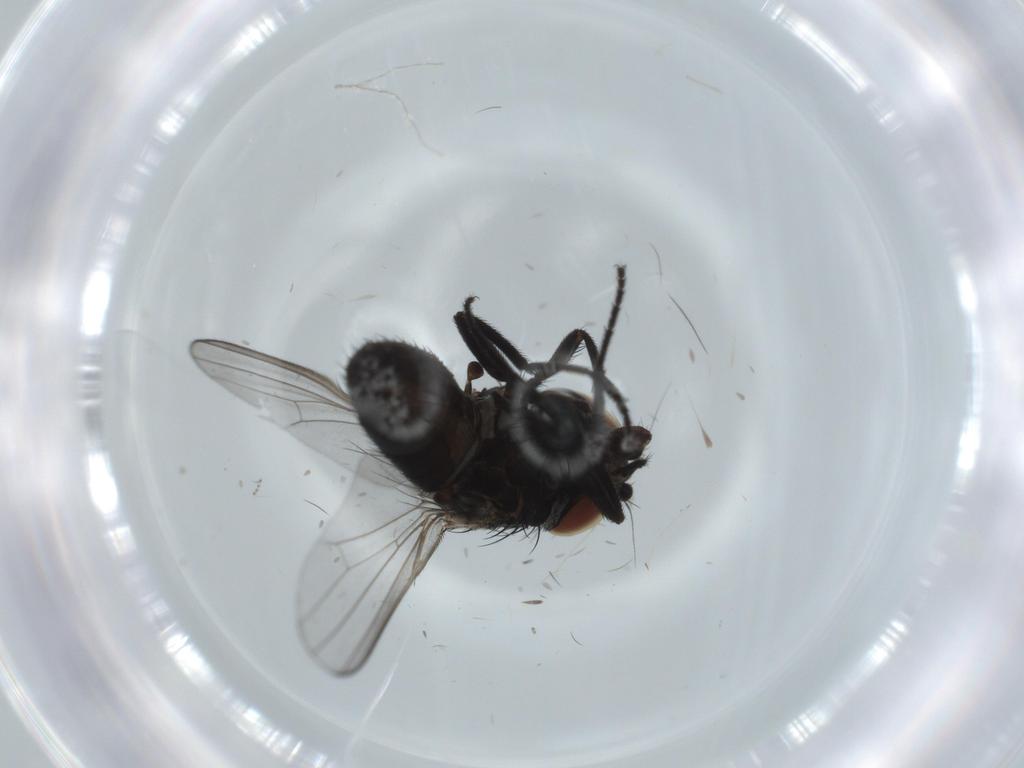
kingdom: Animalia
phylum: Arthropoda
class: Insecta
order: Diptera
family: Milichiidae
